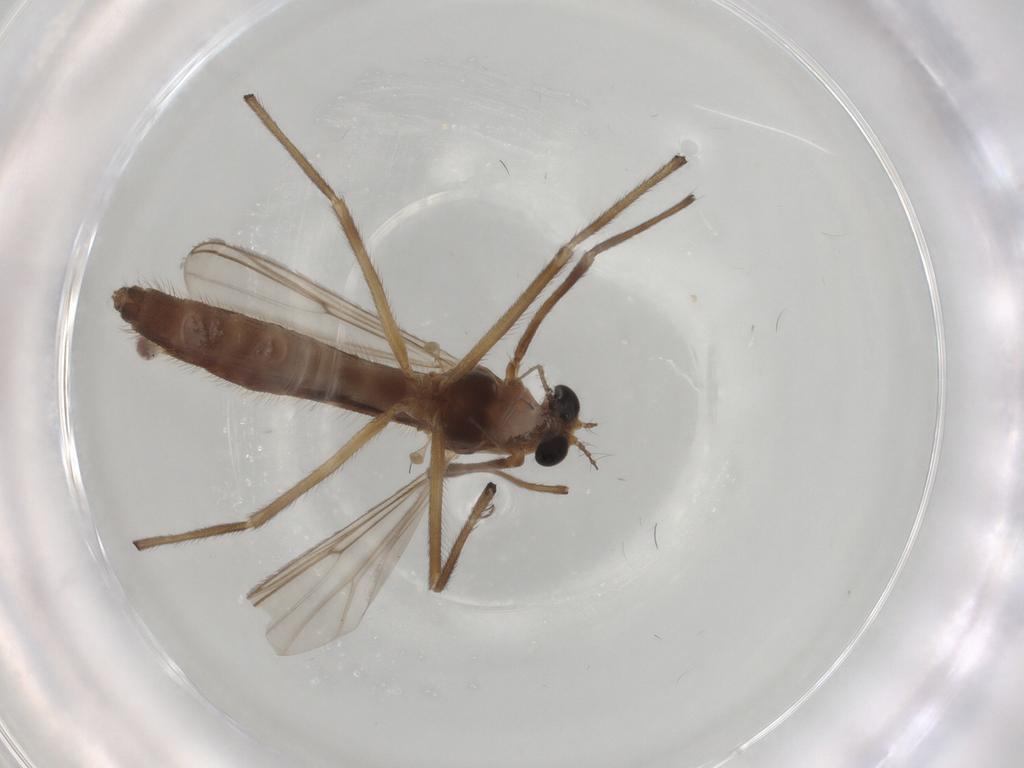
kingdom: Animalia
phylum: Arthropoda
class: Insecta
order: Diptera
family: Chironomidae
